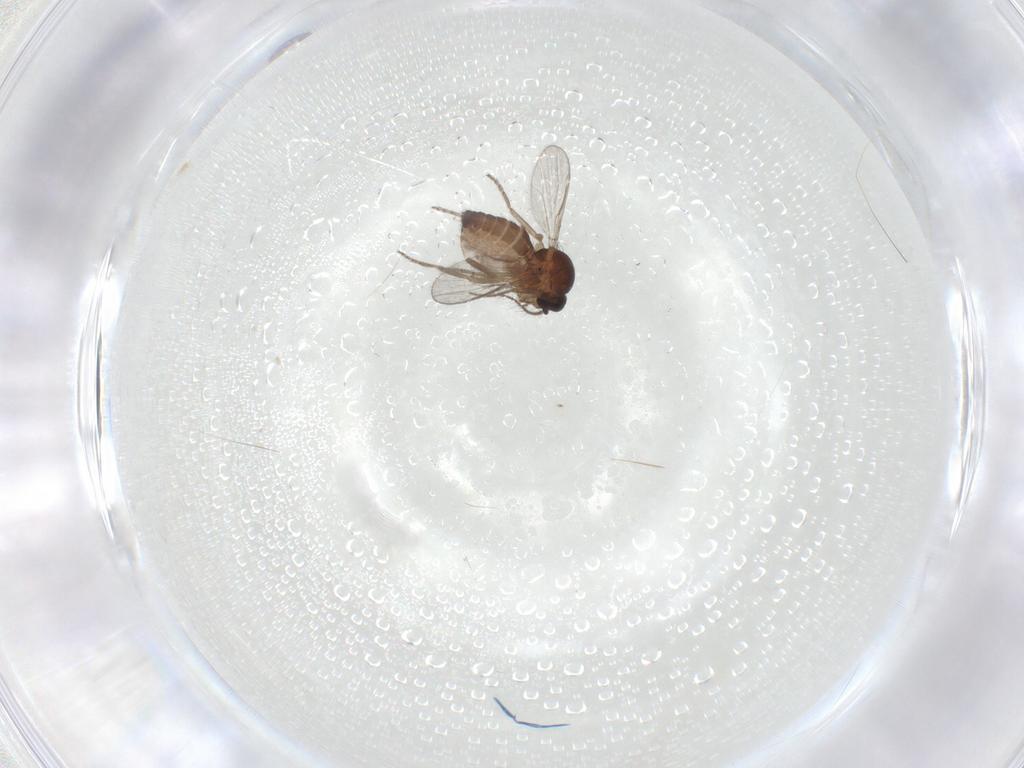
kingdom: Animalia
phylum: Arthropoda
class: Insecta
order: Diptera
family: Ceratopogonidae
